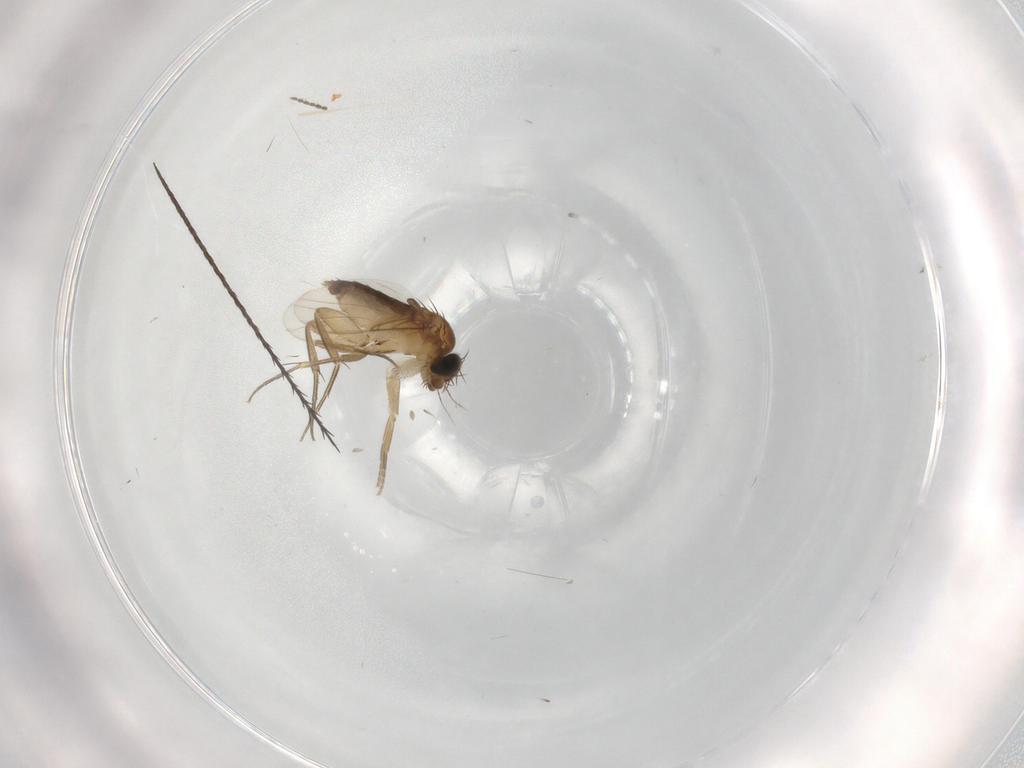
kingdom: Animalia
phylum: Arthropoda
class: Insecta
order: Diptera
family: Phoridae
